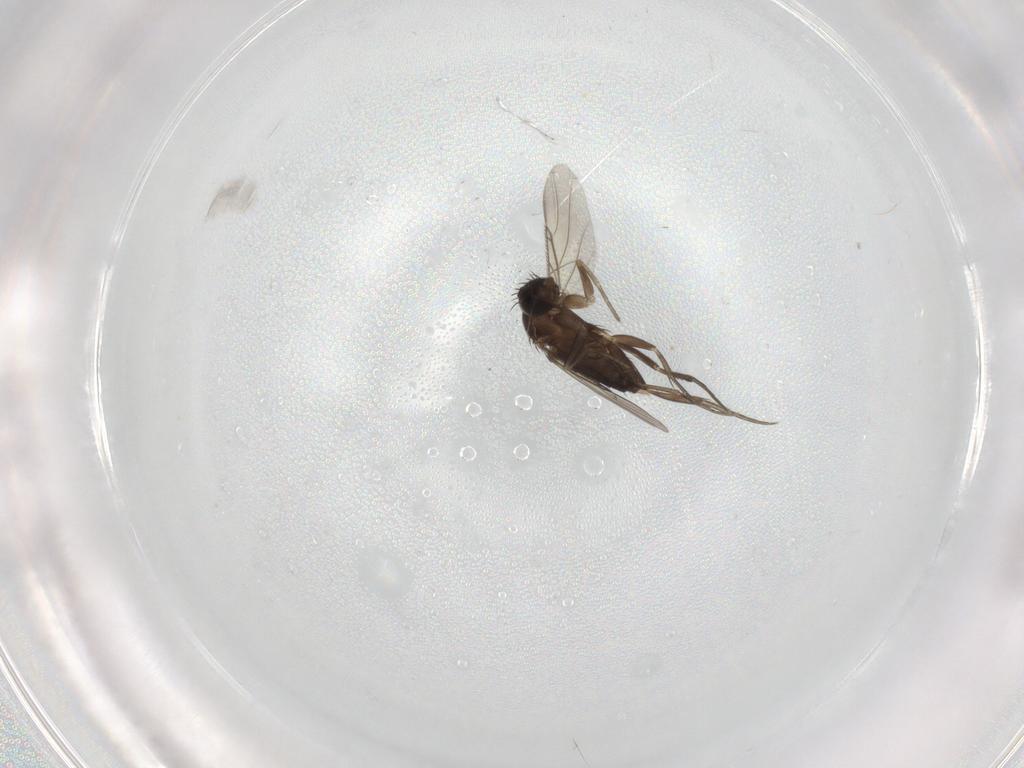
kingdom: Animalia
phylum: Arthropoda
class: Insecta
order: Diptera
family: Phoridae
